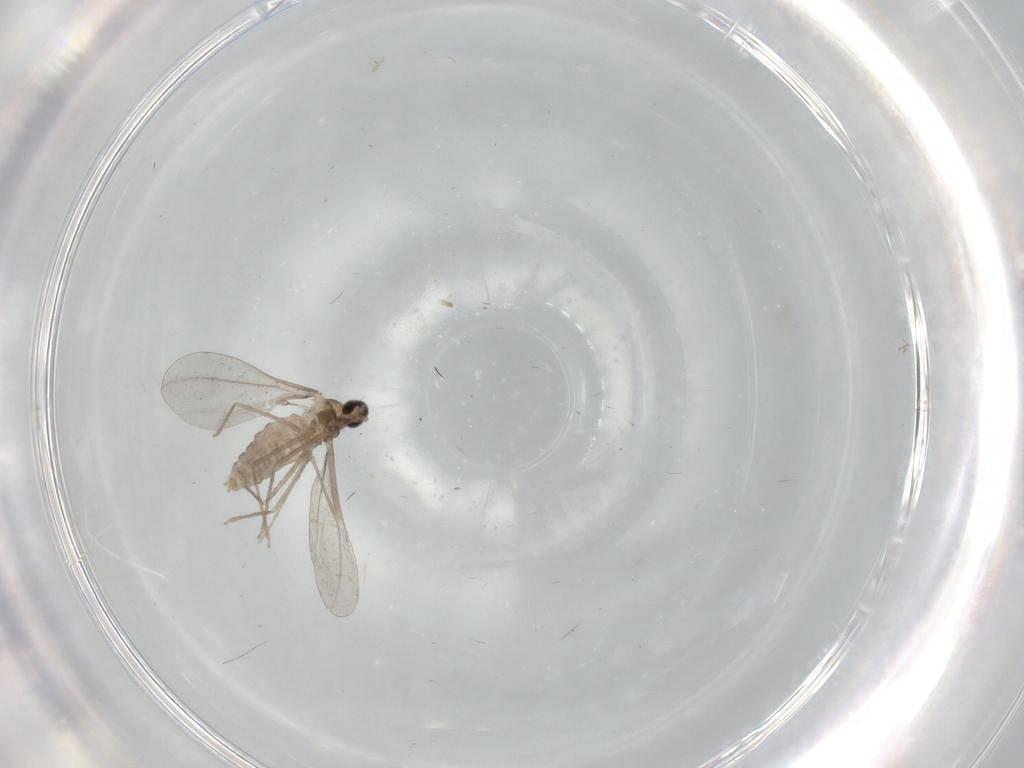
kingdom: Animalia
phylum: Arthropoda
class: Insecta
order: Diptera
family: Cecidomyiidae
